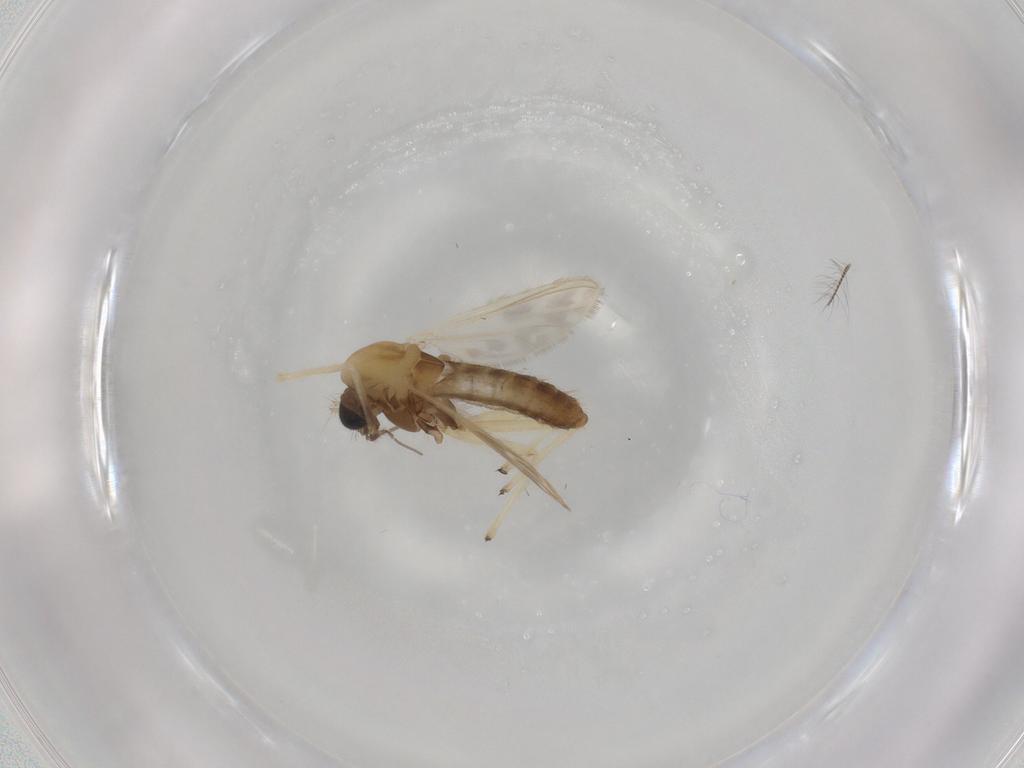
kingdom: Animalia
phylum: Arthropoda
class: Insecta
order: Diptera
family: Chironomidae
